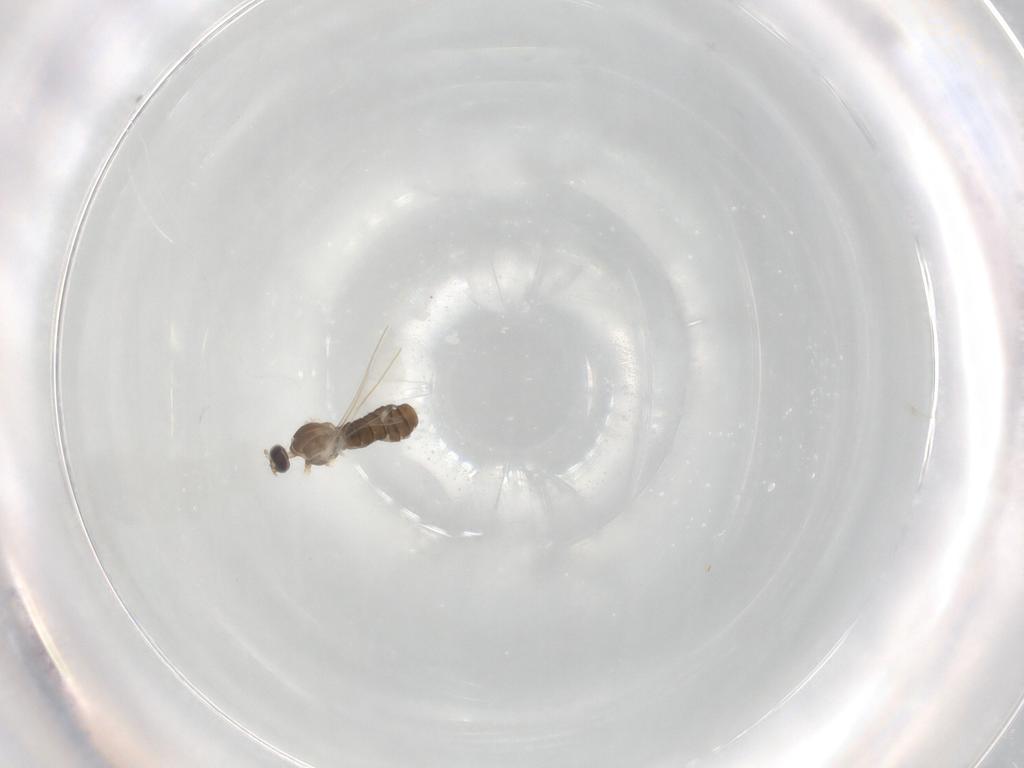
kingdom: Animalia
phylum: Arthropoda
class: Insecta
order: Diptera
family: Cecidomyiidae
